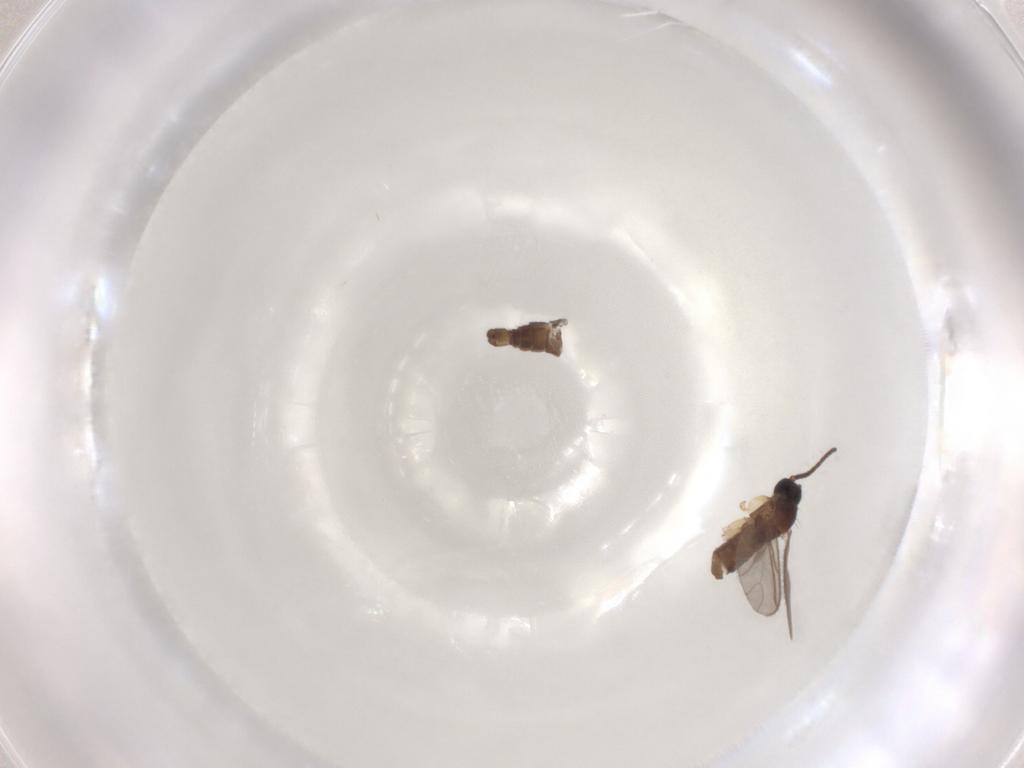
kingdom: Animalia
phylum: Arthropoda
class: Insecta
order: Diptera
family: Sciaridae
